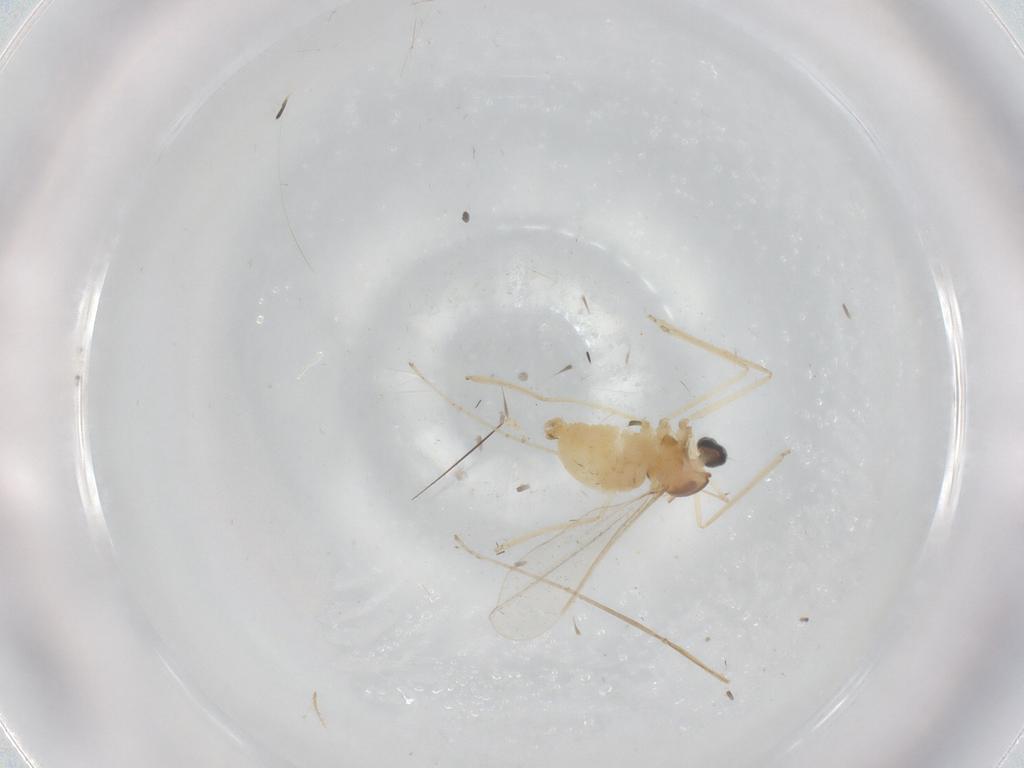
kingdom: Animalia
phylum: Arthropoda
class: Insecta
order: Diptera
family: Cecidomyiidae
